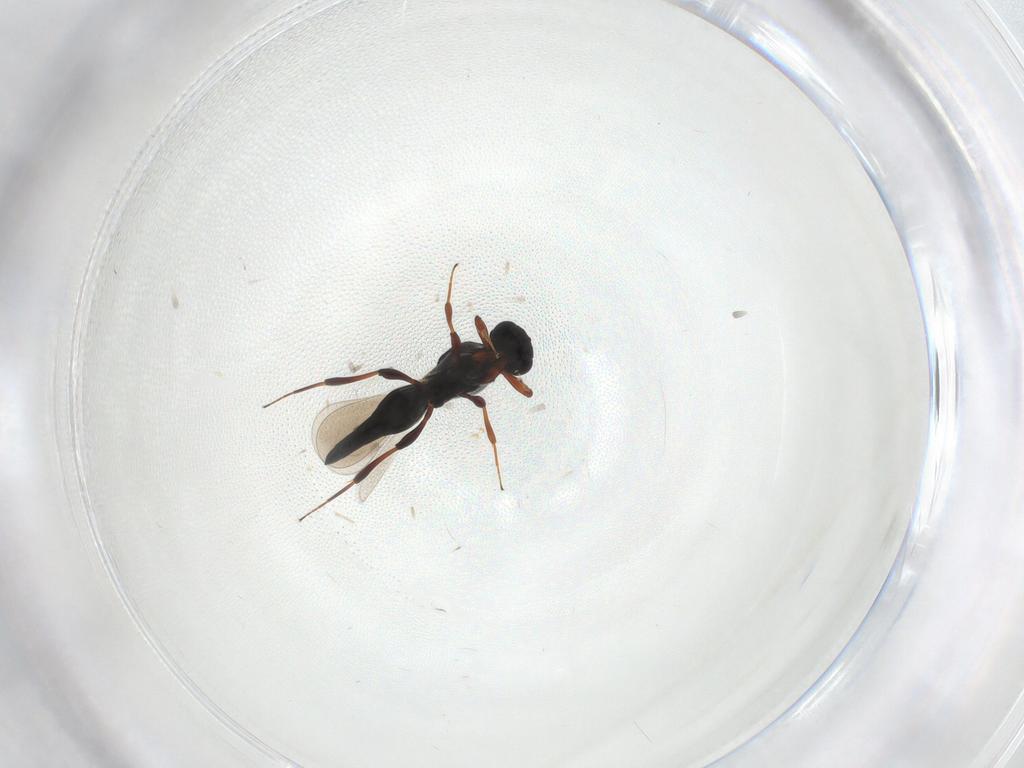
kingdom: Animalia
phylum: Arthropoda
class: Insecta
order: Hymenoptera
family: Platygastridae
